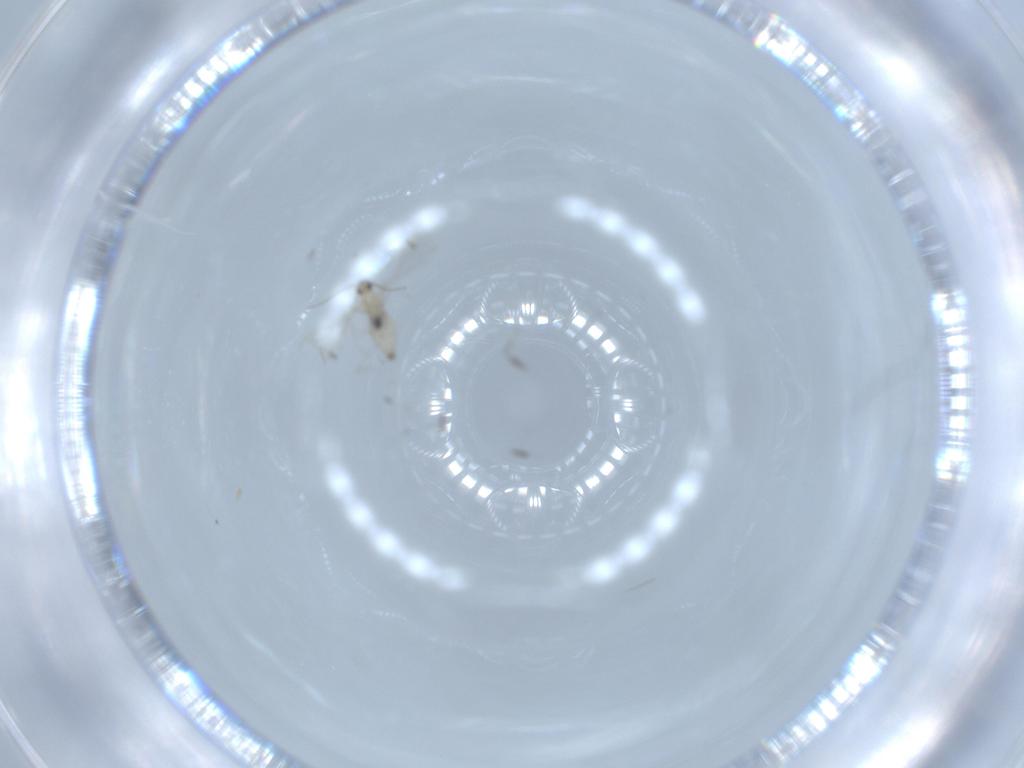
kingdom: Animalia
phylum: Arthropoda
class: Insecta
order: Diptera
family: Cecidomyiidae
